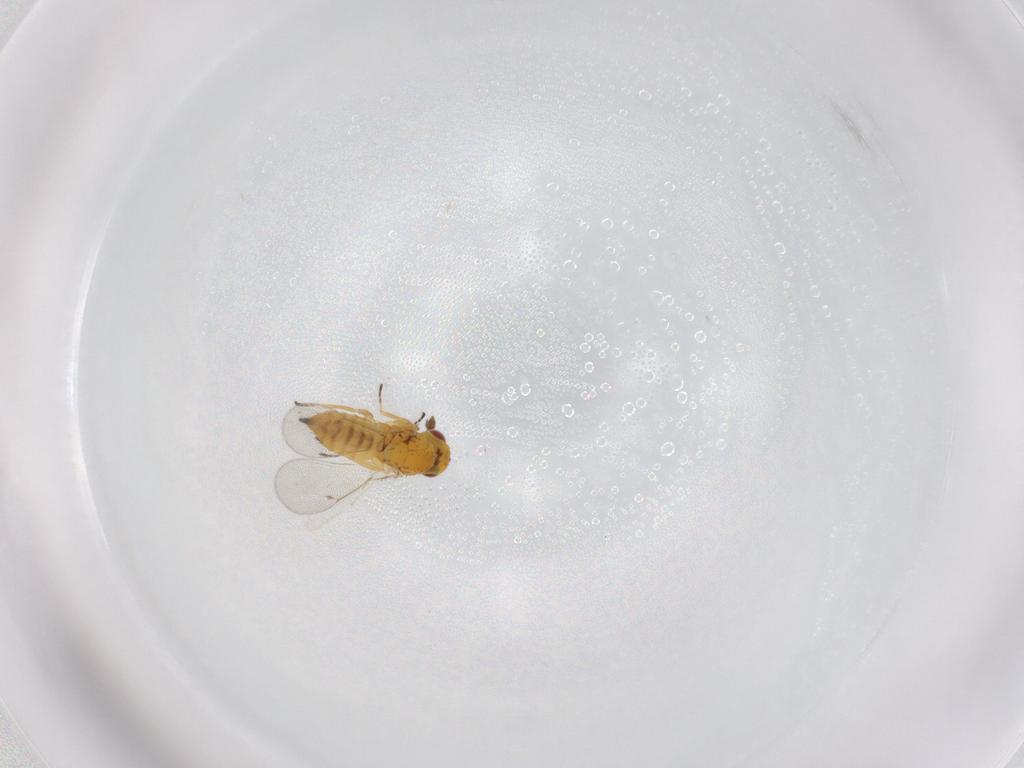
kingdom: Animalia
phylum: Arthropoda
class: Insecta
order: Hymenoptera
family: Eulophidae
